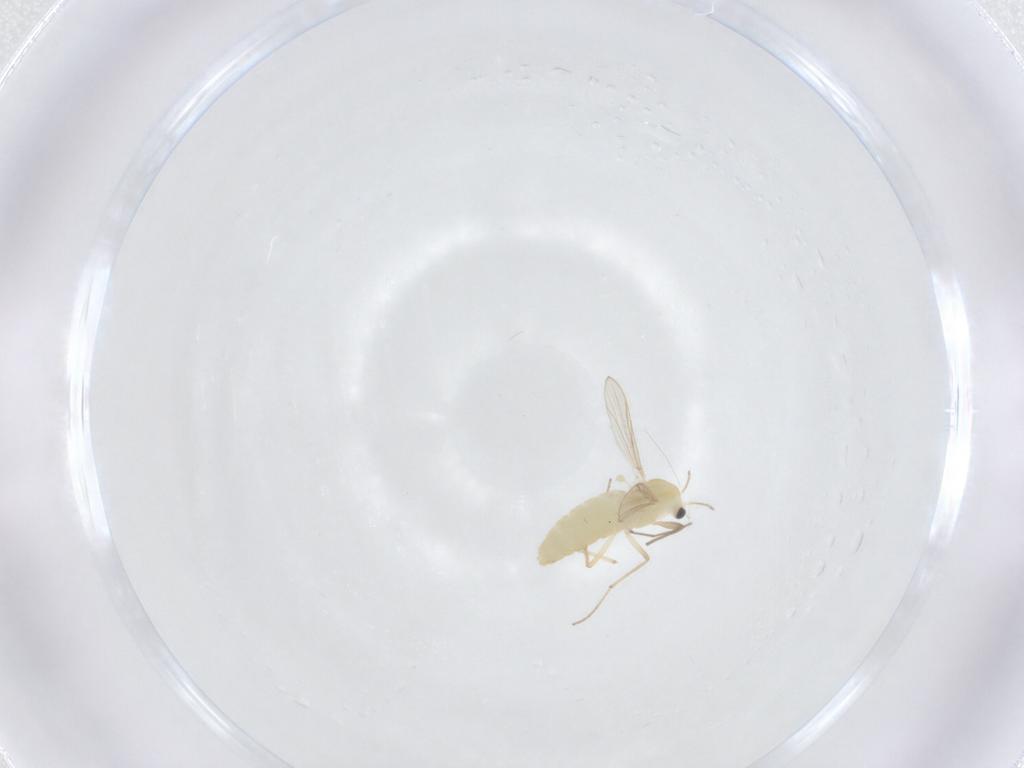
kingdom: Animalia
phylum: Arthropoda
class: Insecta
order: Diptera
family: Chironomidae
